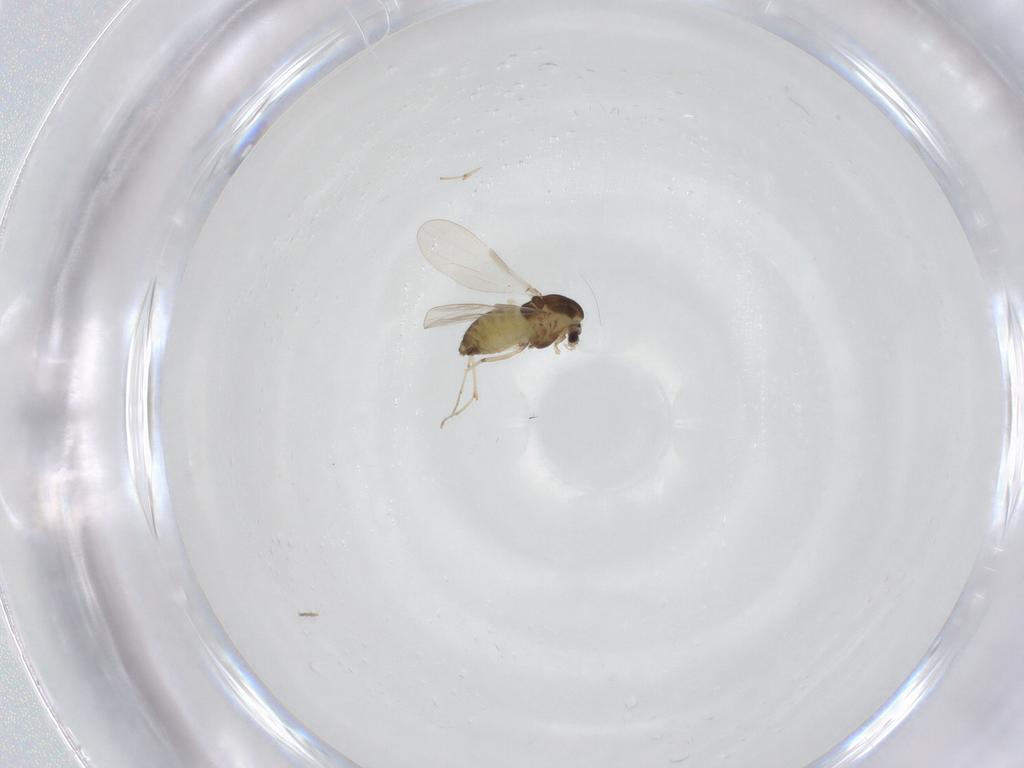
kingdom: Animalia
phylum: Arthropoda
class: Insecta
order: Diptera
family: Chironomidae
